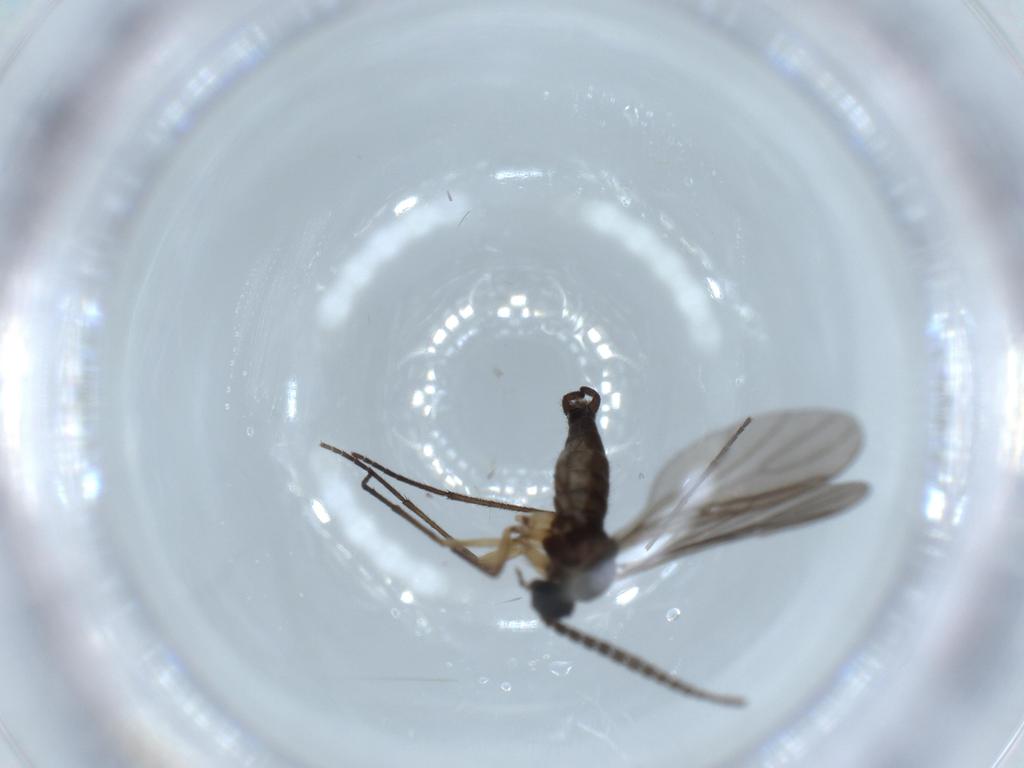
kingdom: Animalia
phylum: Arthropoda
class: Insecta
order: Diptera
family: Sciaridae
